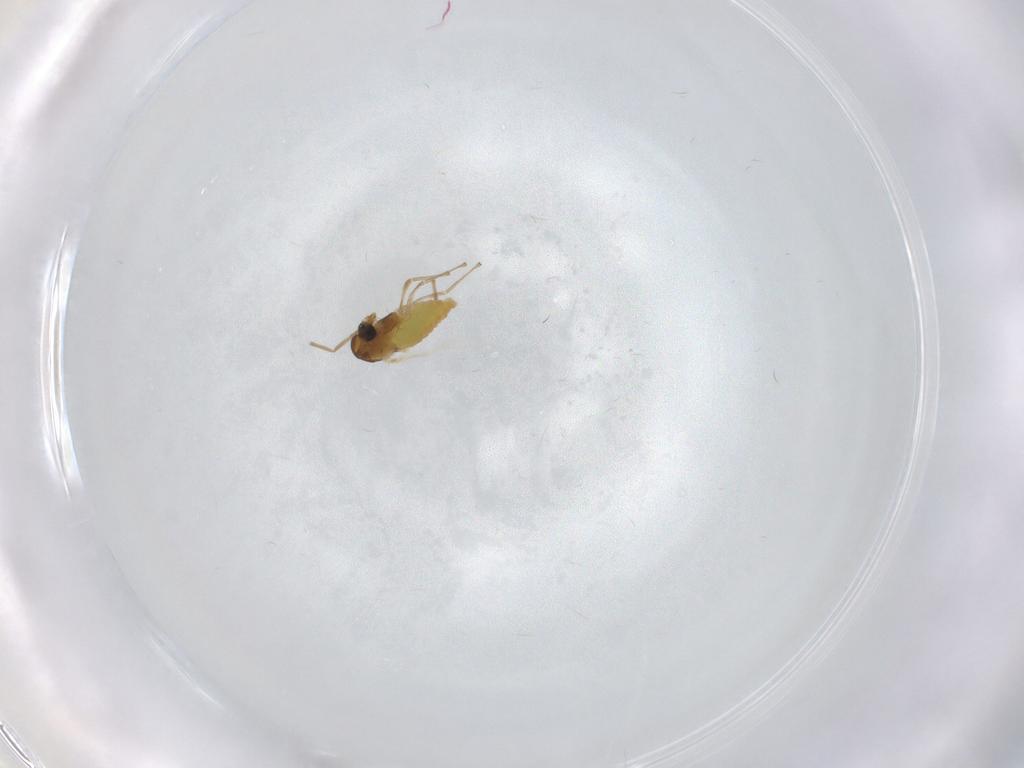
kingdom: Animalia
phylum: Arthropoda
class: Insecta
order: Diptera
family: Chironomidae
